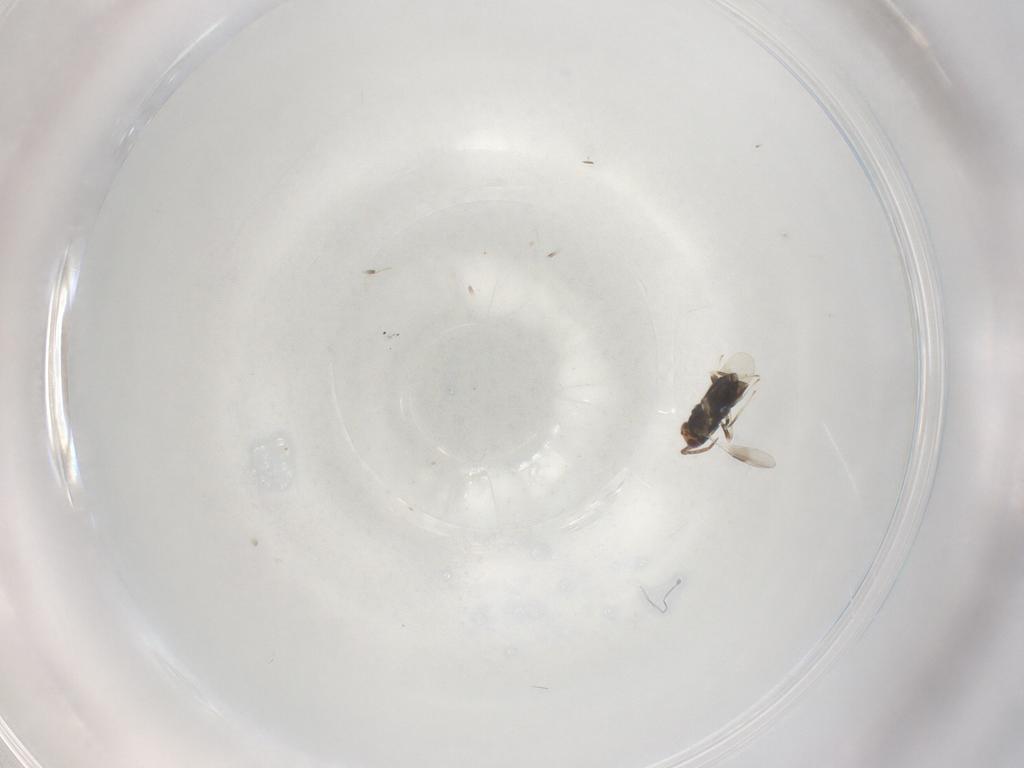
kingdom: Animalia
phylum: Arthropoda
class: Insecta
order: Hymenoptera
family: Aphelinidae
